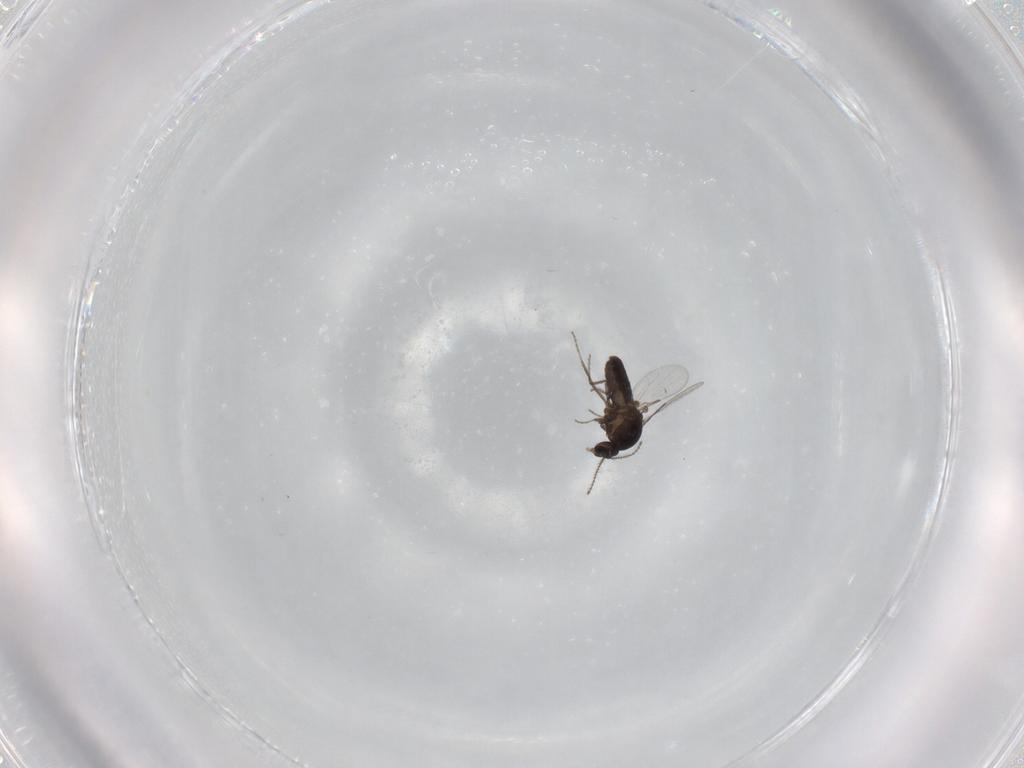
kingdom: Animalia
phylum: Arthropoda
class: Insecta
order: Diptera
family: Ceratopogonidae
